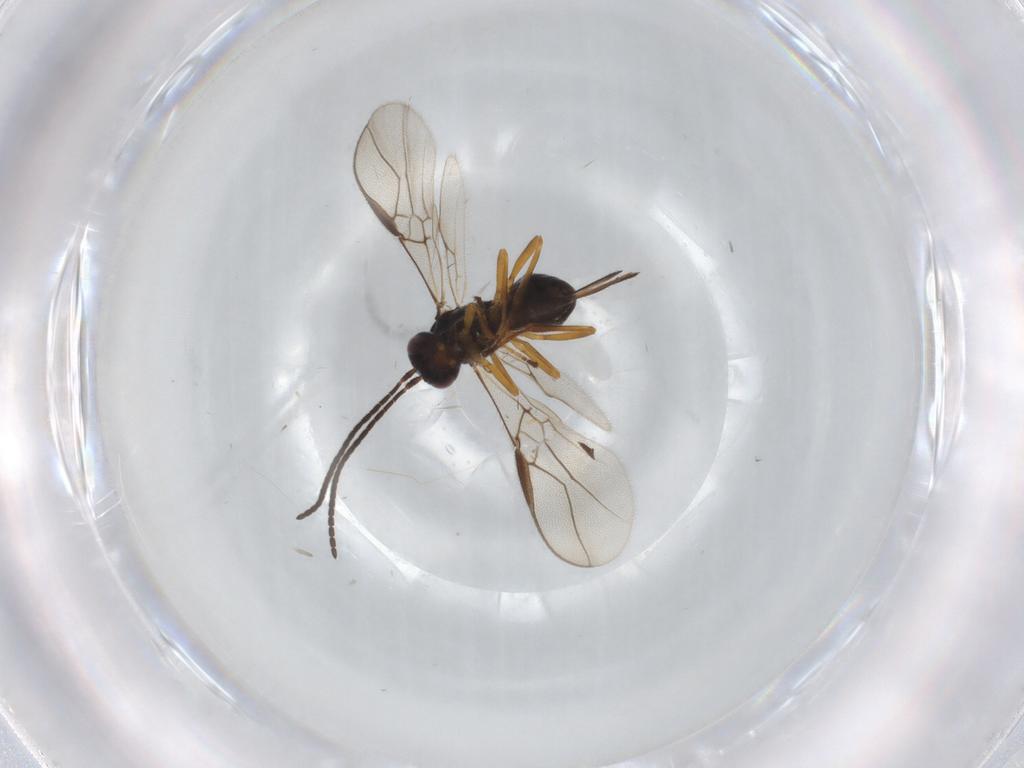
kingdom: Animalia
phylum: Arthropoda
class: Insecta
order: Hymenoptera
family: Braconidae
